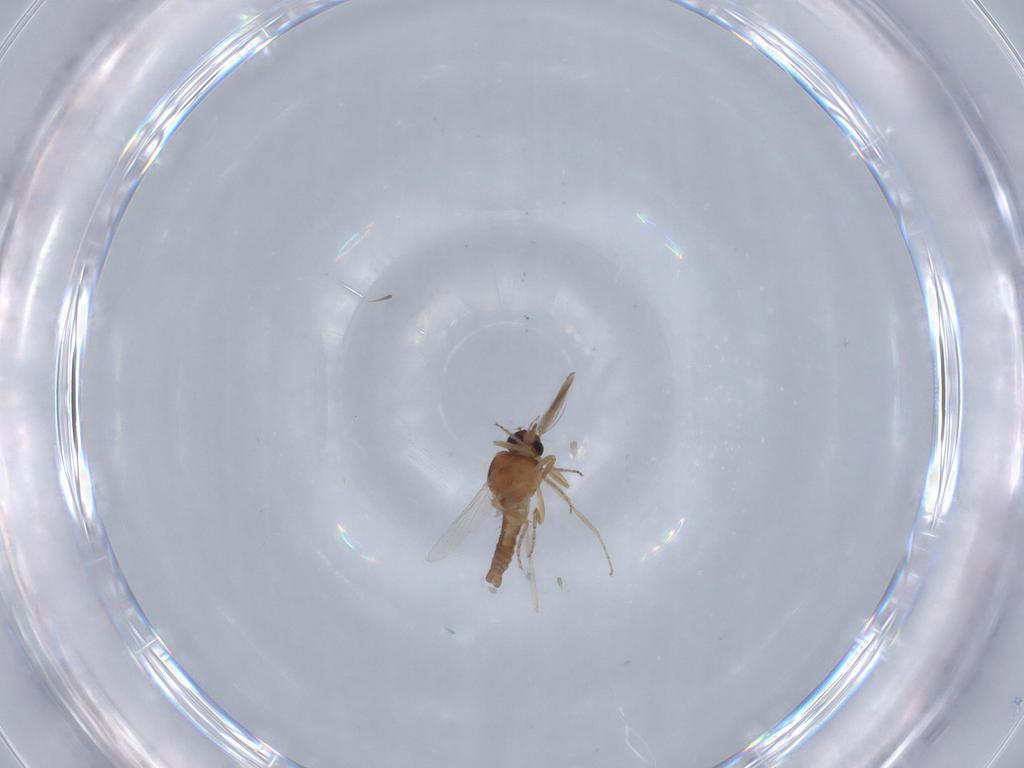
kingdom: Animalia
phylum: Arthropoda
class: Insecta
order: Diptera
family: Ceratopogonidae
